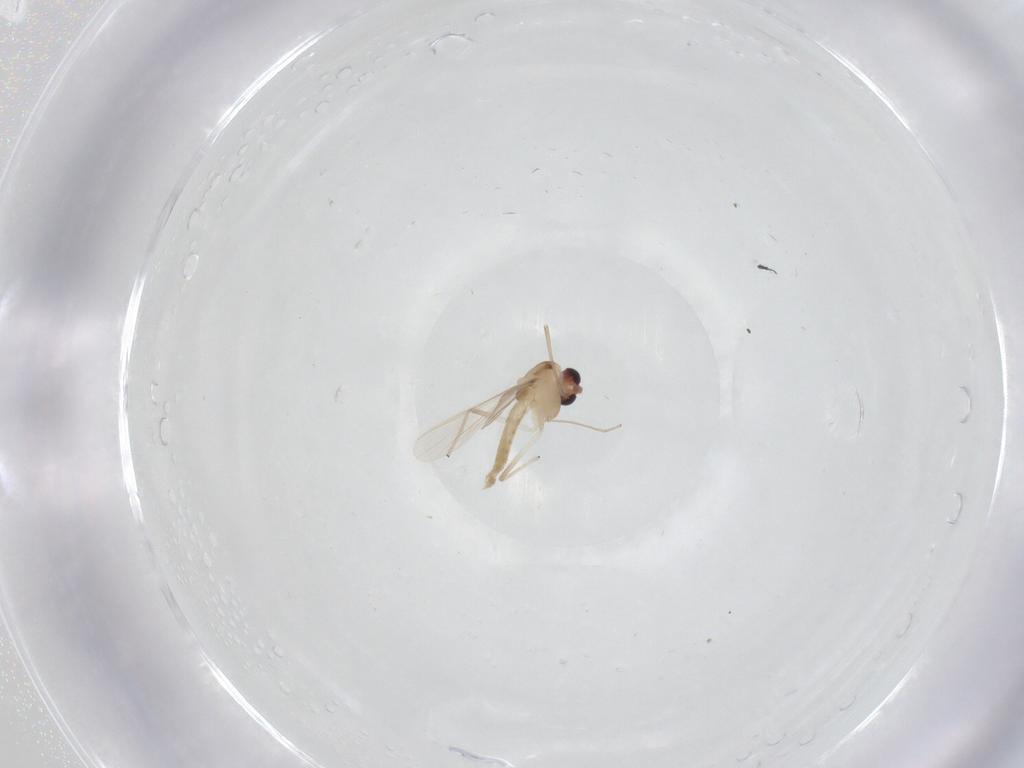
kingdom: Animalia
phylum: Arthropoda
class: Insecta
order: Diptera
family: Chironomidae
